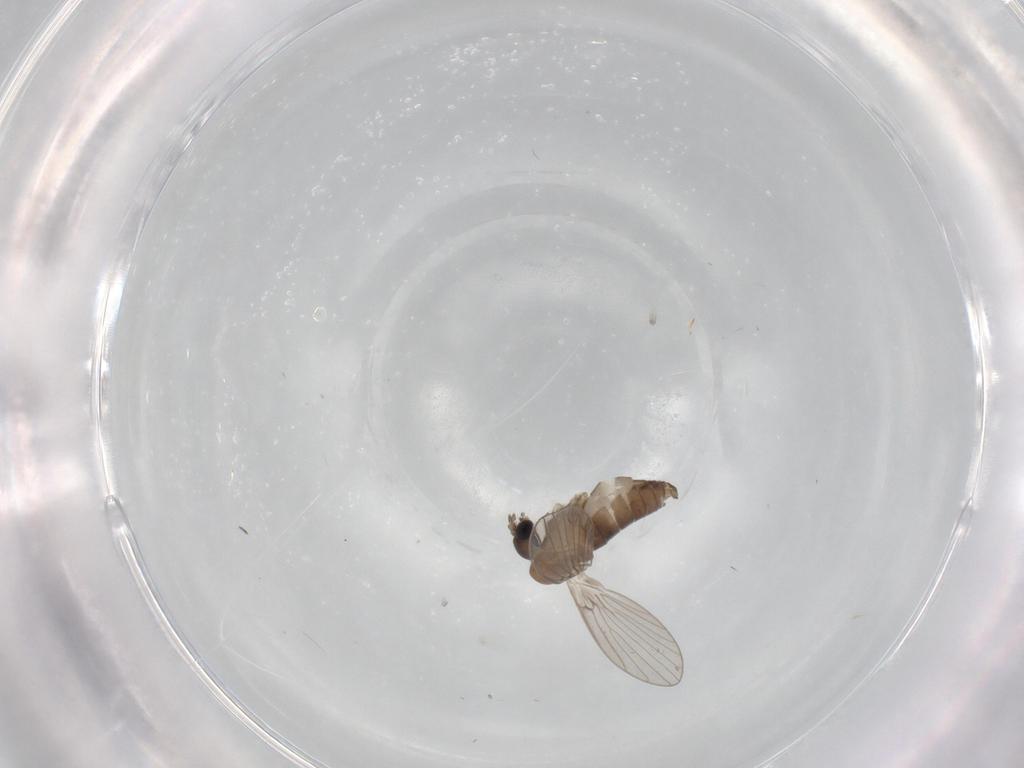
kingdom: Animalia
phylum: Arthropoda
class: Insecta
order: Diptera
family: Psychodidae
